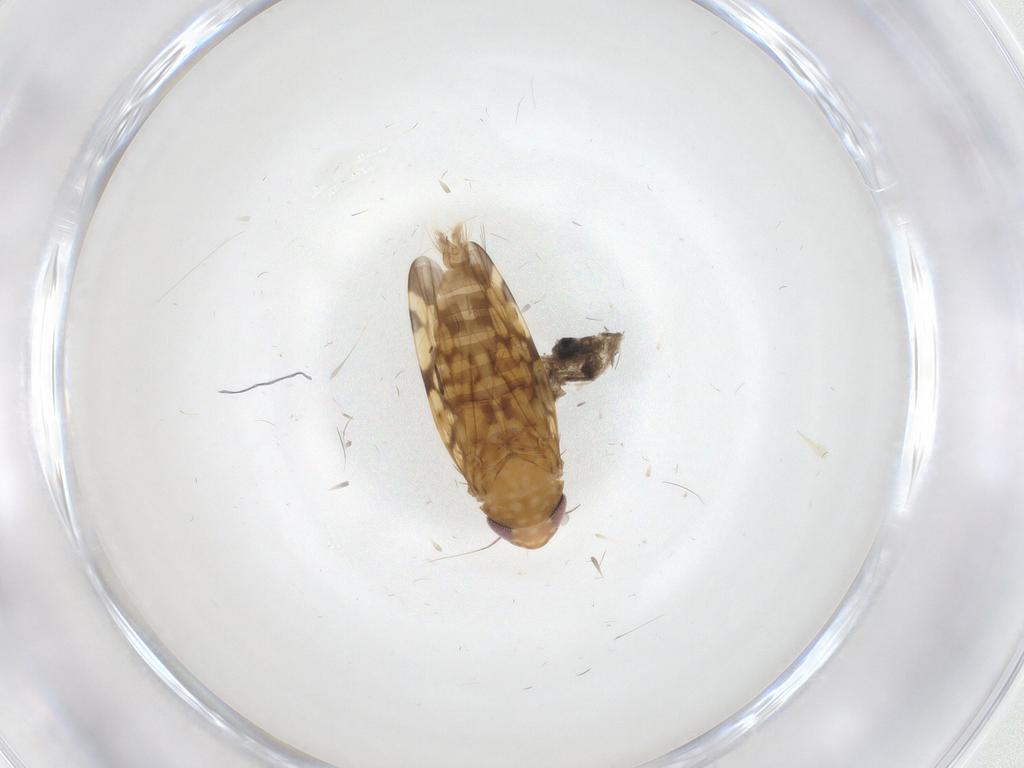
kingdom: Animalia
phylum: Arthropoda
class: Insecta
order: Hemiptera
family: Cicadellidae
